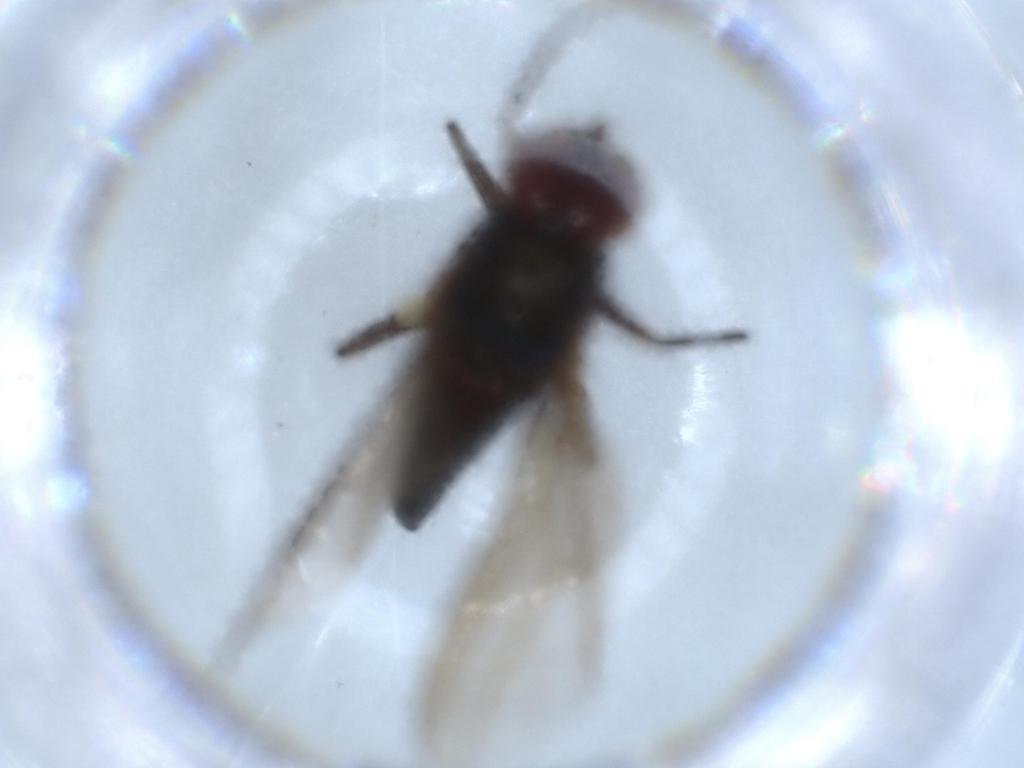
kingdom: Animalia
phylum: Arthropoda
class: Insecta
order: Diptera
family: Dolichopodidae
